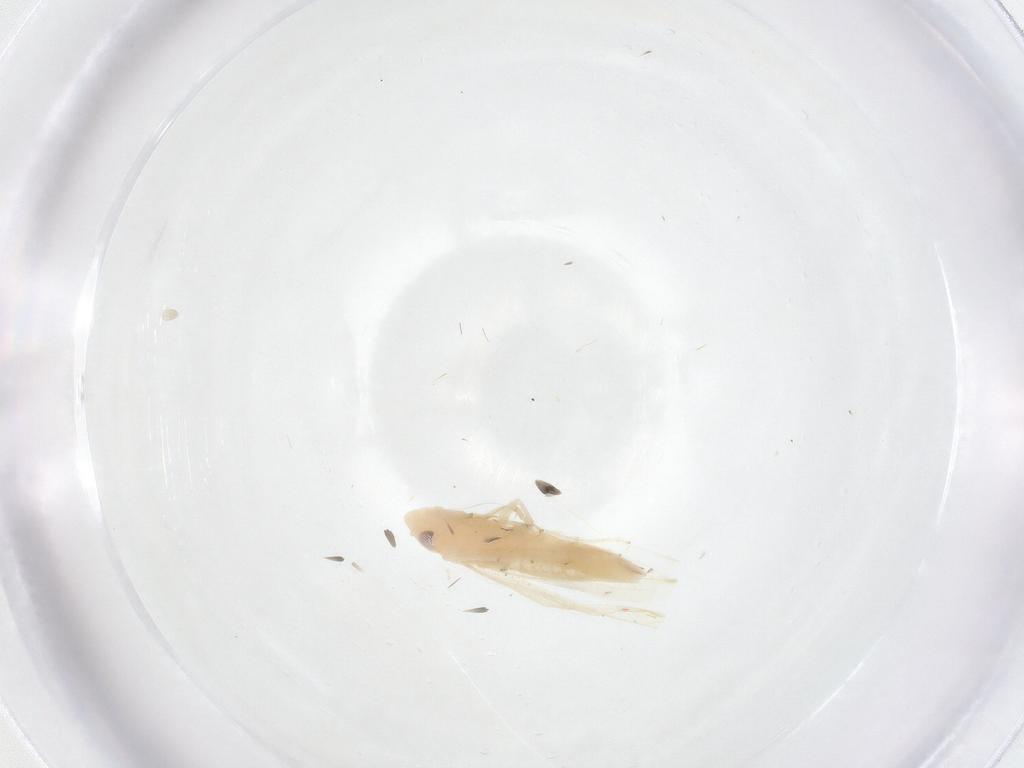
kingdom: Animalia
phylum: Arthropoda
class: Insecta
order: Hemiptera
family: Cicadellidae
